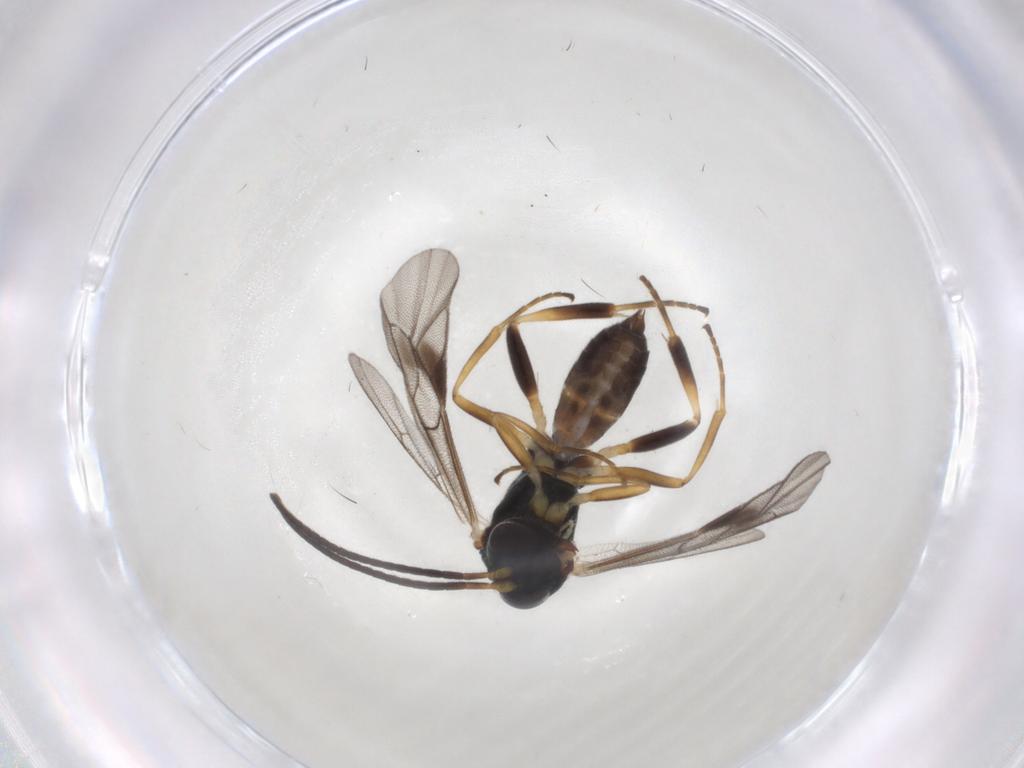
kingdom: Animalia
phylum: Arthropoda
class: Insecta
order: Hymenoptera
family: Ichneumonidae
